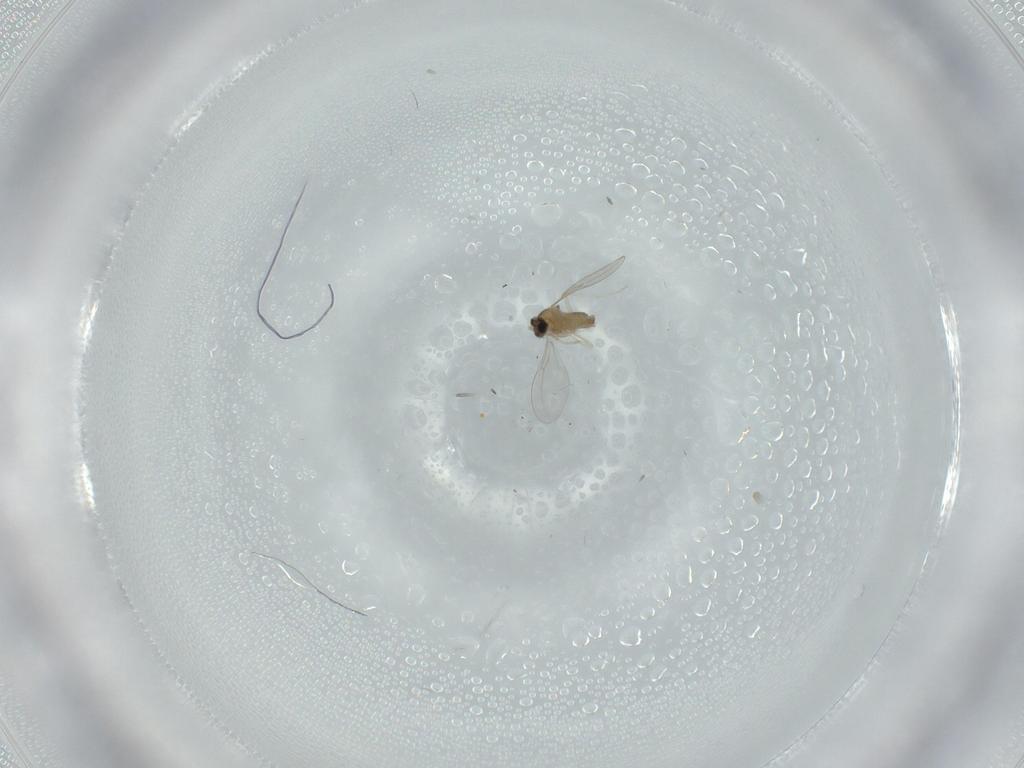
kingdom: Animalia
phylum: Arthropoda
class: Insecta
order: Diptera
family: Cecidomyiidae
